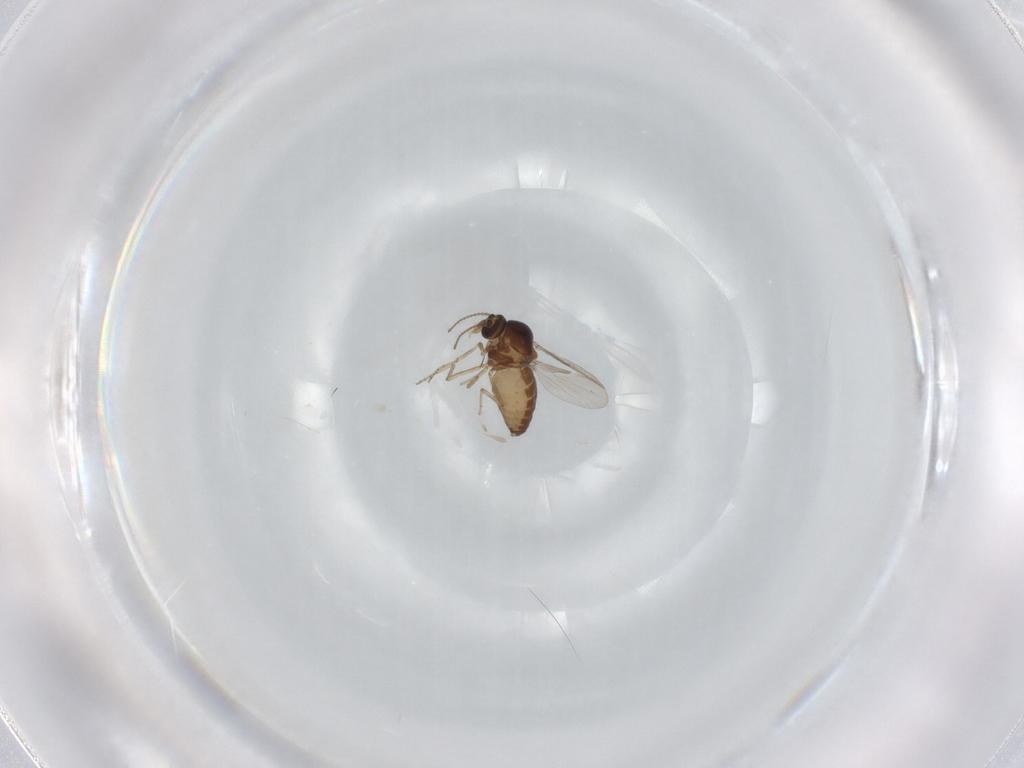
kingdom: Animalia
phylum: Arthropoda
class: Insecta
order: Diptera
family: Ceratopogonidae
